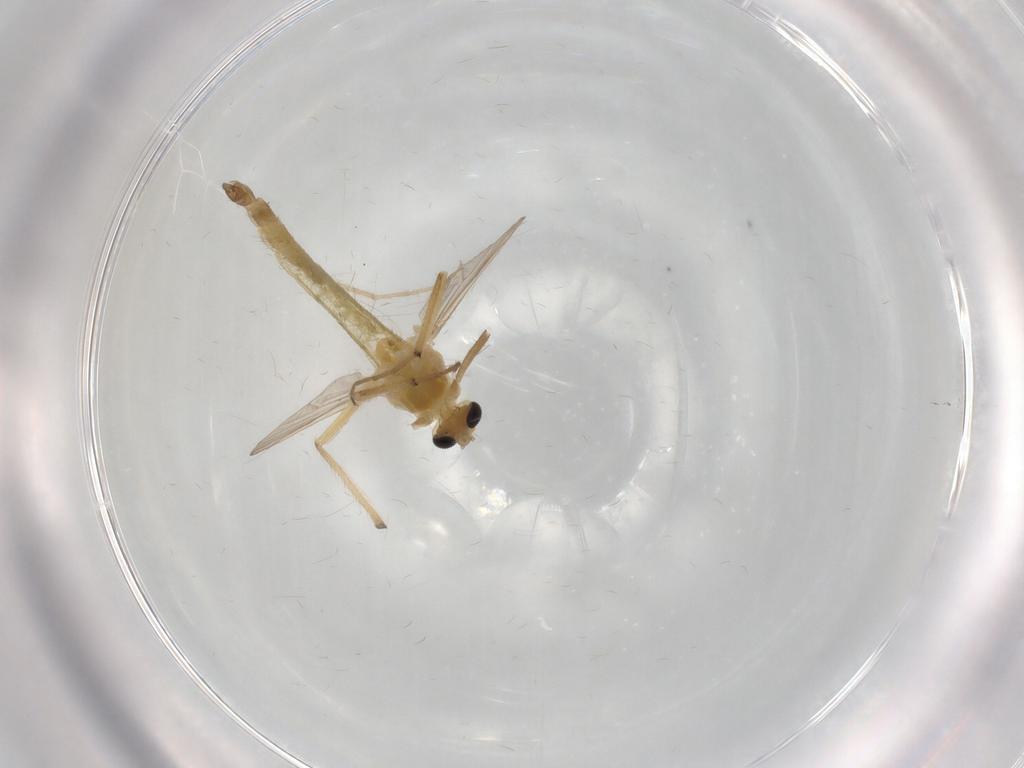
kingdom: Animalia
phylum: Arthropoda
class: Insecta
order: Diptera
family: Chironomidae
